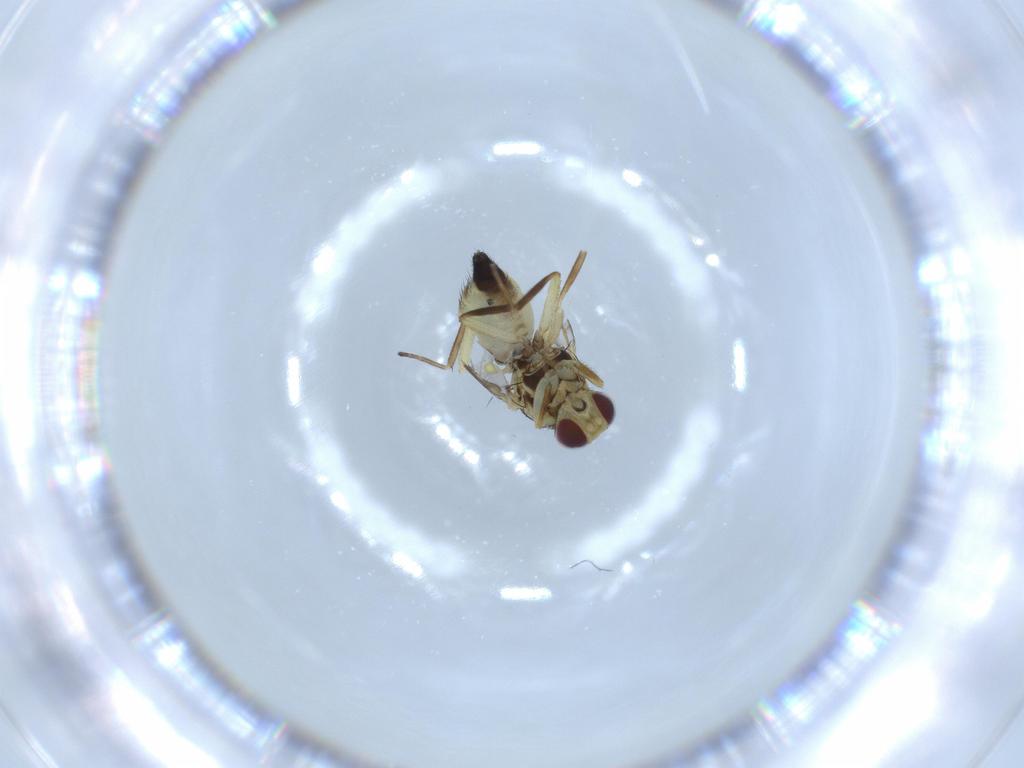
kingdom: Animalia
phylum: Arthropoda
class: Insecta
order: Diptera
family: Agromyzidae
